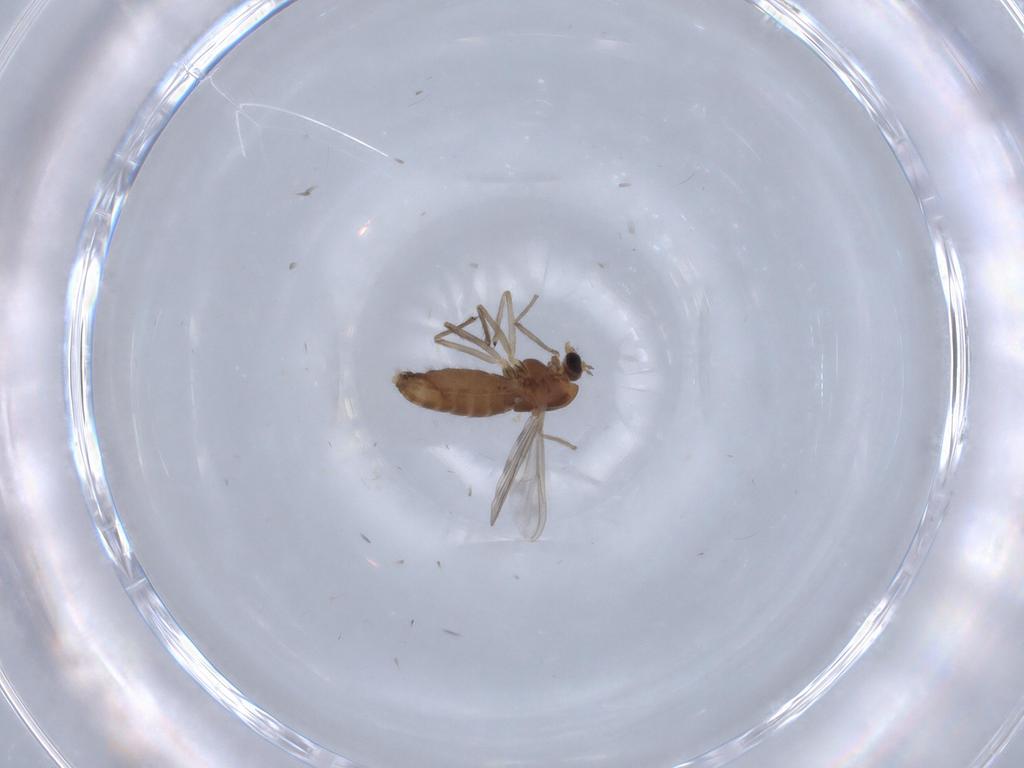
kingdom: Animalia
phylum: Arthropoda
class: Insecta
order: Diptera
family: Chironomidae
